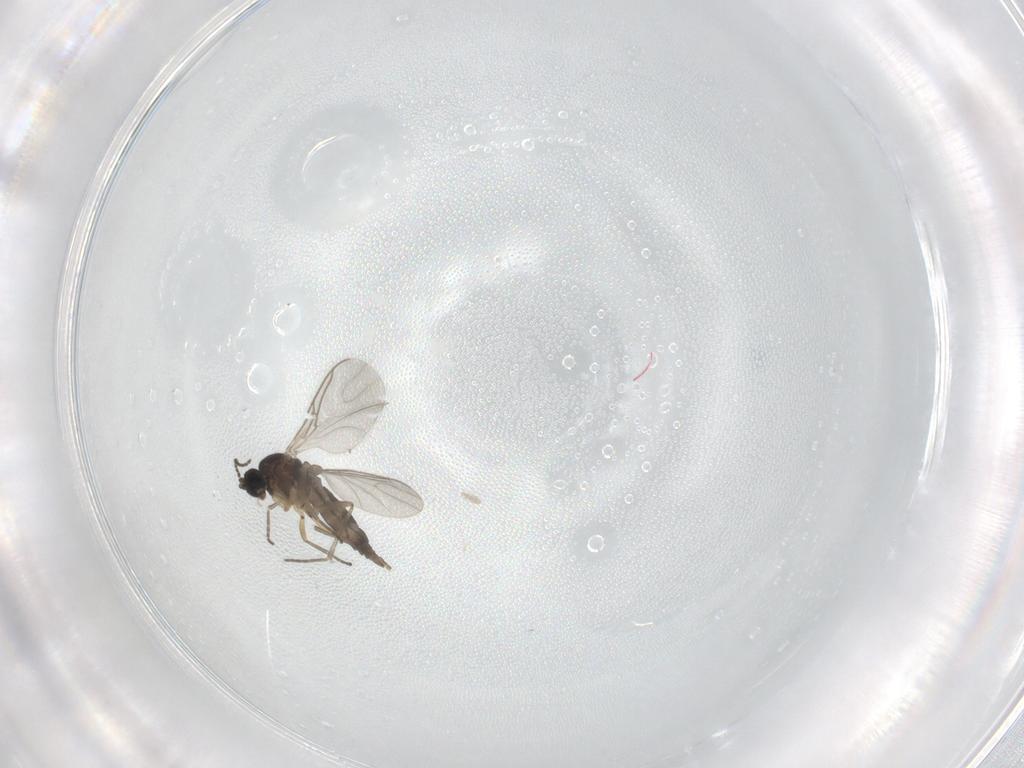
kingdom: Animalia
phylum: Arthropoda
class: Insecta
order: Diptera
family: Sciaridae
